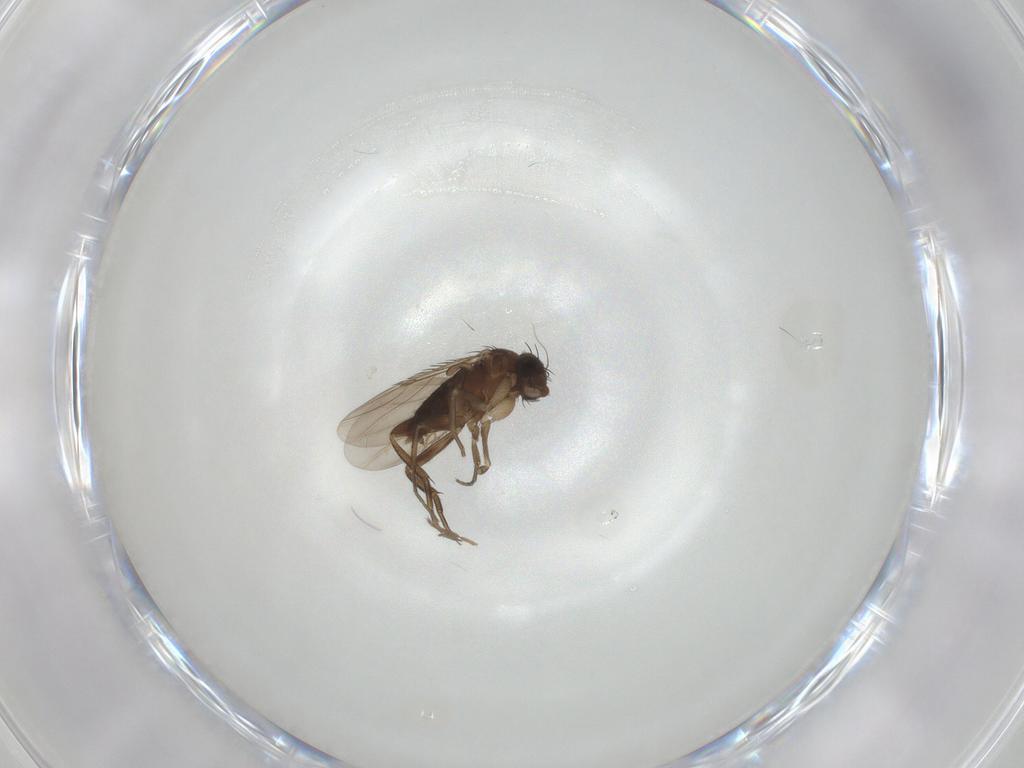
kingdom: Animalia
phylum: Arthropoda
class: Insecta
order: Diptera
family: Phoridae
